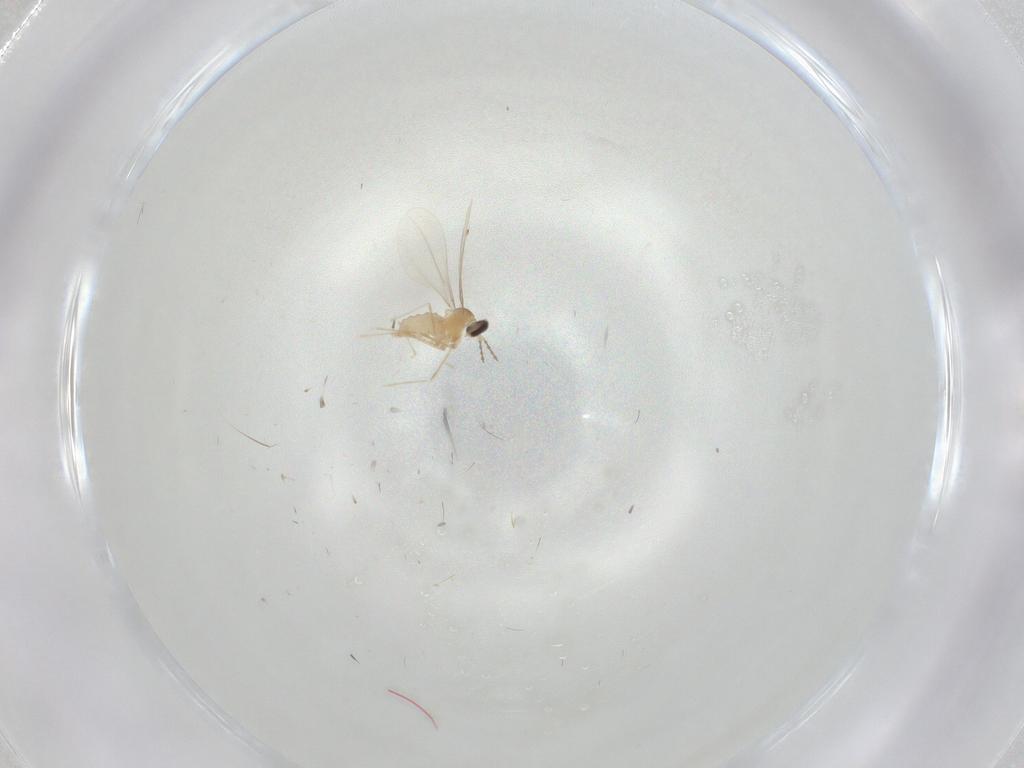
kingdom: Animalia
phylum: Arthropoda
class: Insecta
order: Diptera
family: Cecidomyiidae
